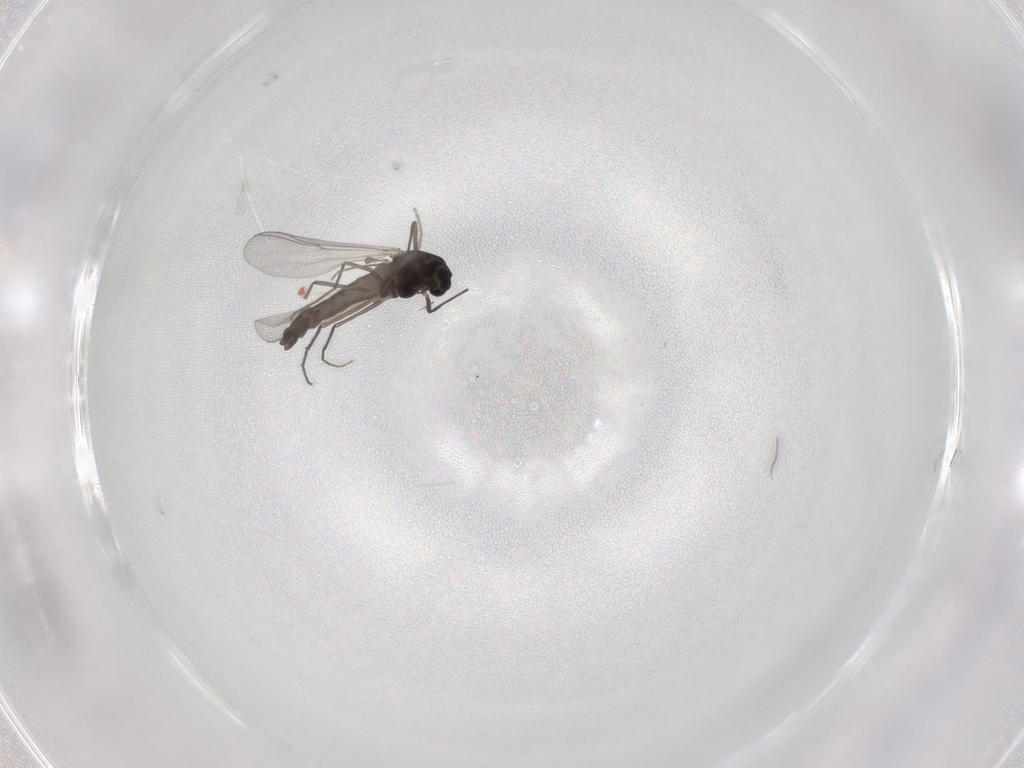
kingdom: Animalia
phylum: Arthropoda
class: Insecta
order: Diptera
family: Chironomidae
